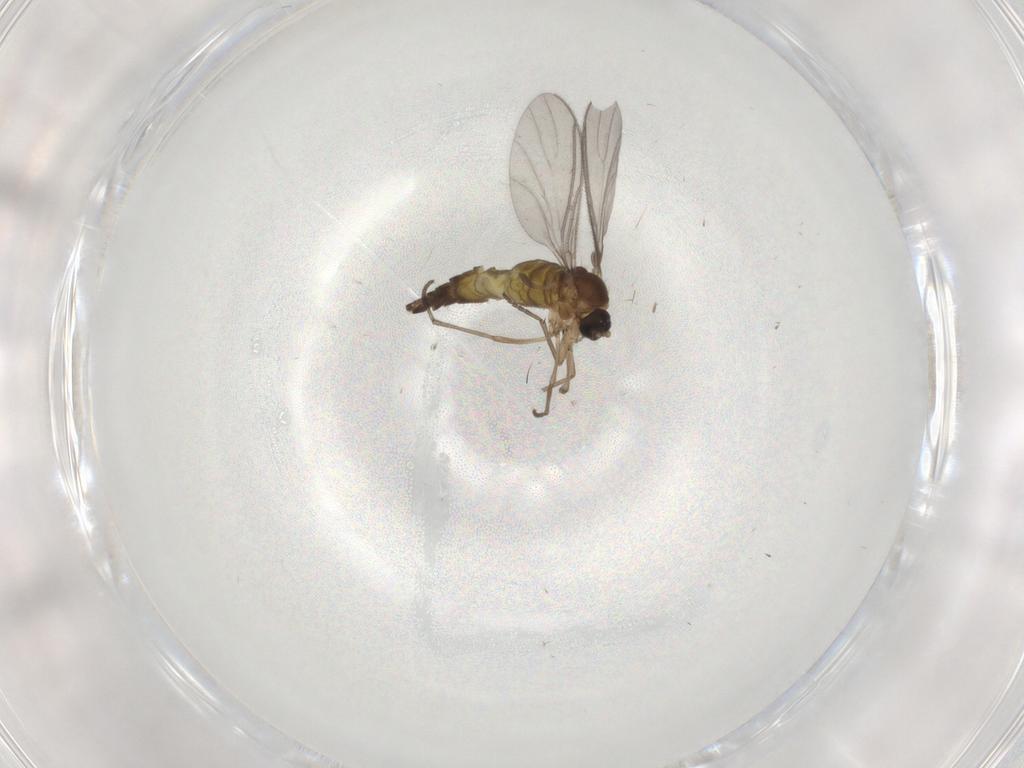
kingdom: Animalia
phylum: Arthropoda
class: Insecta
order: Diptera
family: Sciaridae
